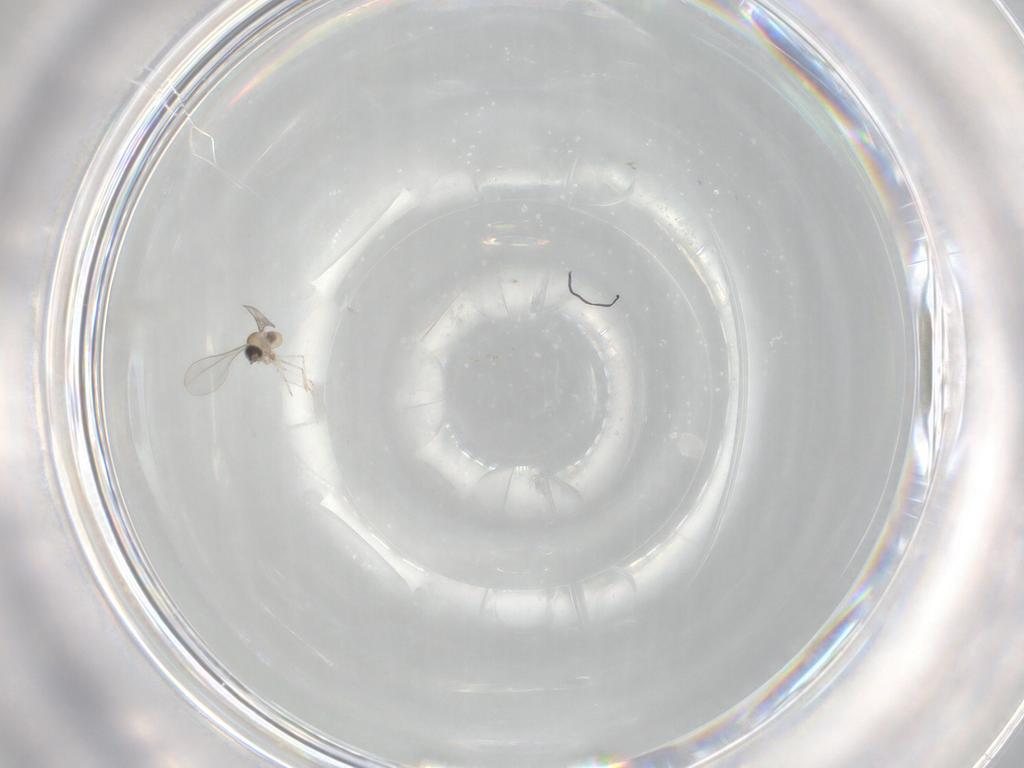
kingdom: Animalia
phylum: Arthropoda
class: Insecta
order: Diptera
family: Cecidomyiidae
